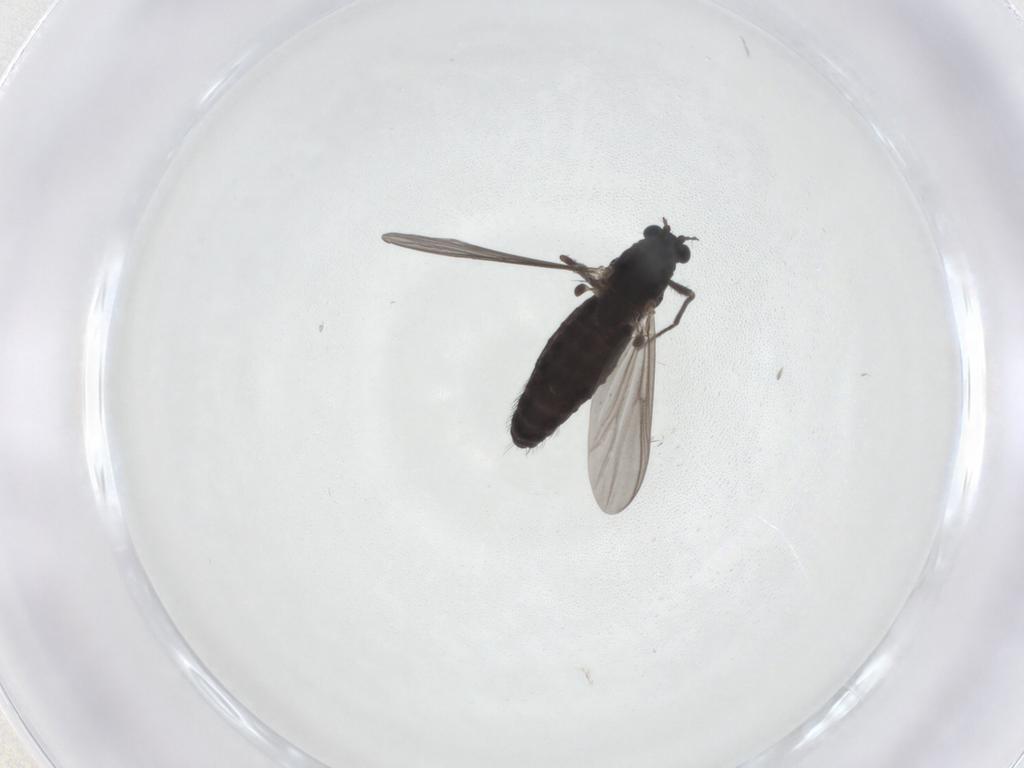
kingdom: Animalia
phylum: Arthropoda
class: Insecta
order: Diptera
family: Chironomidae
